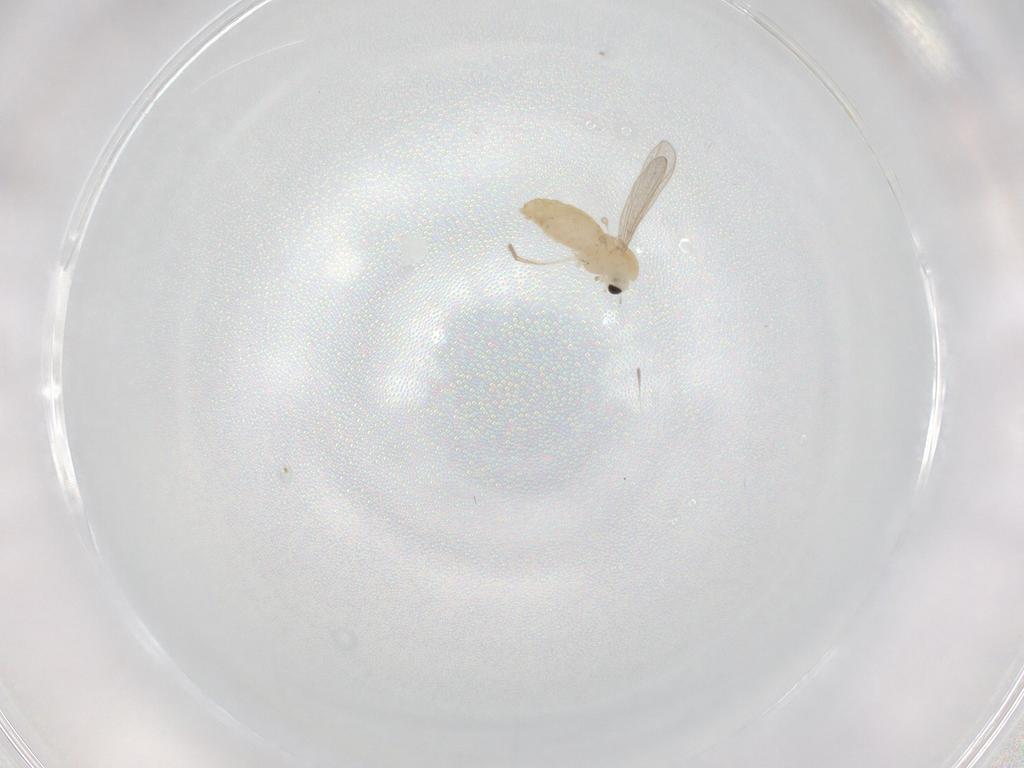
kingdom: Animalia
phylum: Arthropoda
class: Insecta
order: Diptera
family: Chironomidae
